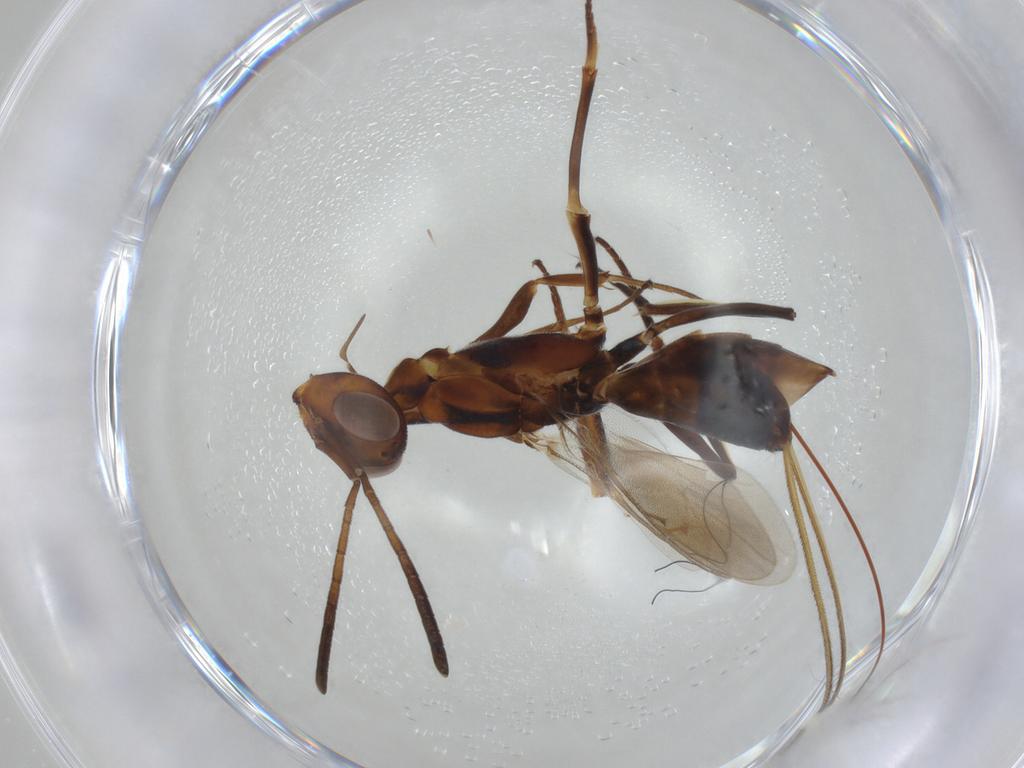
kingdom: Animalia
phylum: Arthropoda
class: Insecta
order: Hymenoptera
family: Eupelmidae
